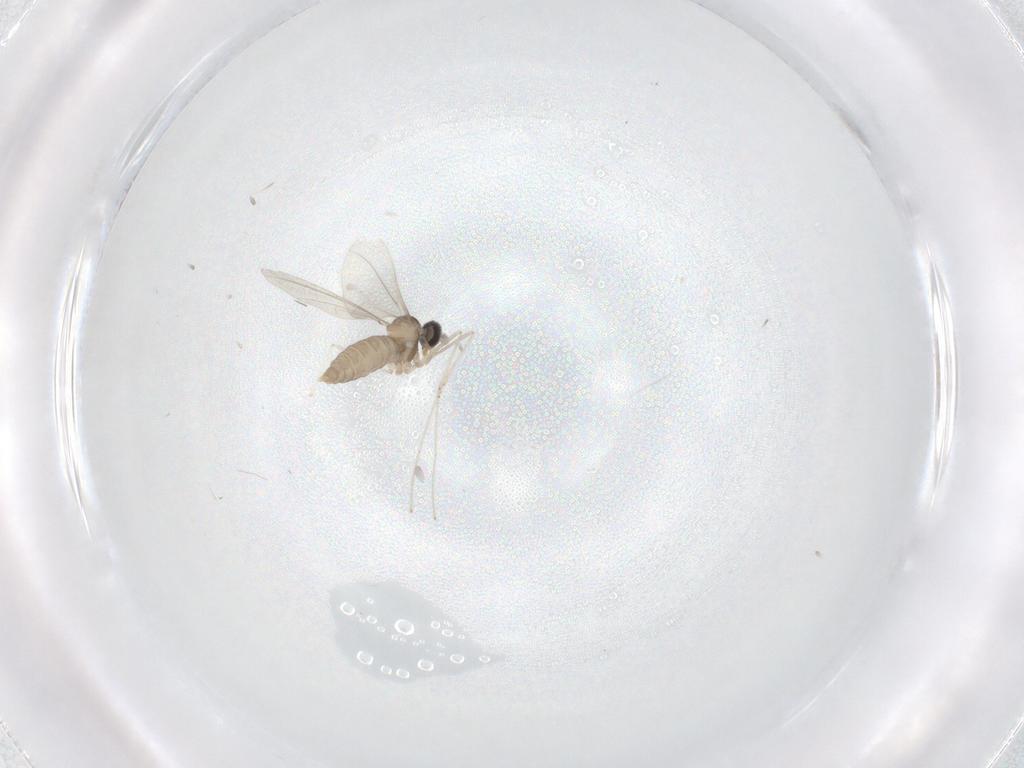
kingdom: Animalia
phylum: Arthropoda
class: Insecta
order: Diptera
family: Cecidomyiidae
